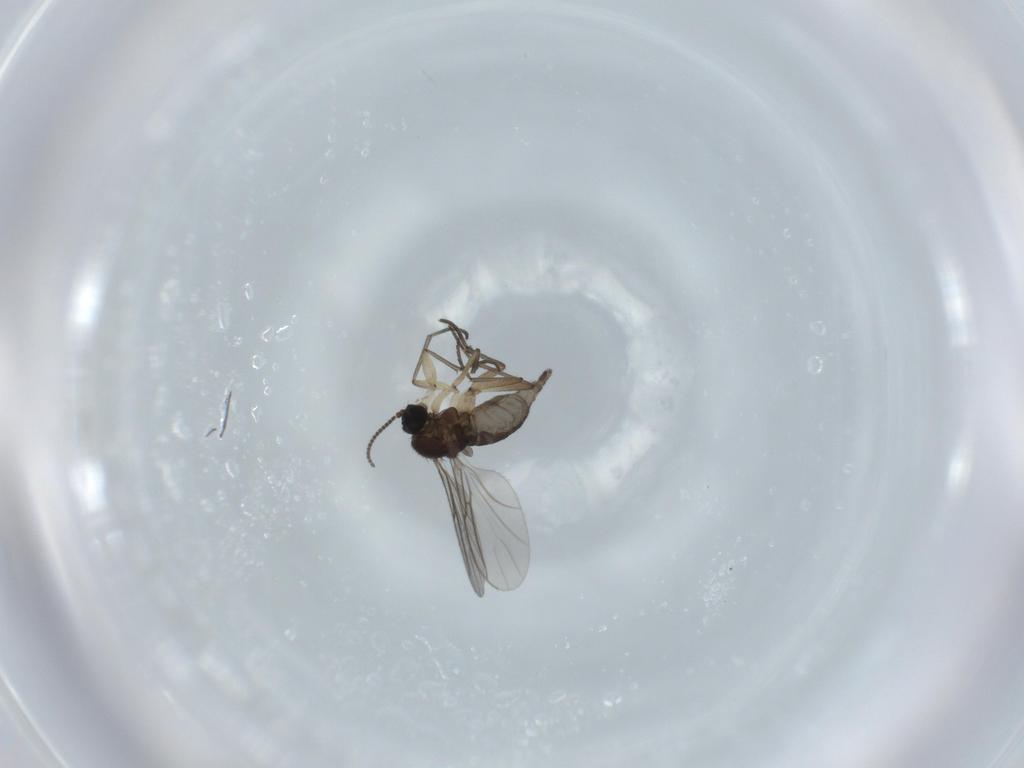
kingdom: Animalia
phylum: Arthropoda
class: Insecta
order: Diptera
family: Sciaridae
